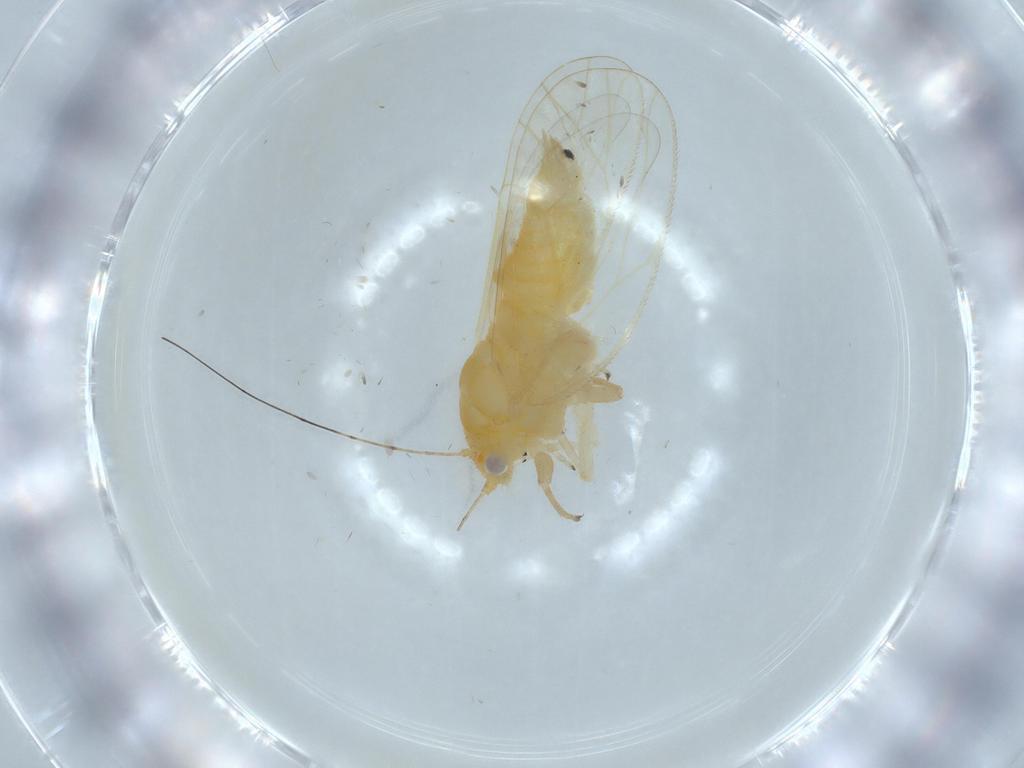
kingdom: Animalia
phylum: Arthropoda
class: Insecta
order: Hemiptera
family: Psyllidae
